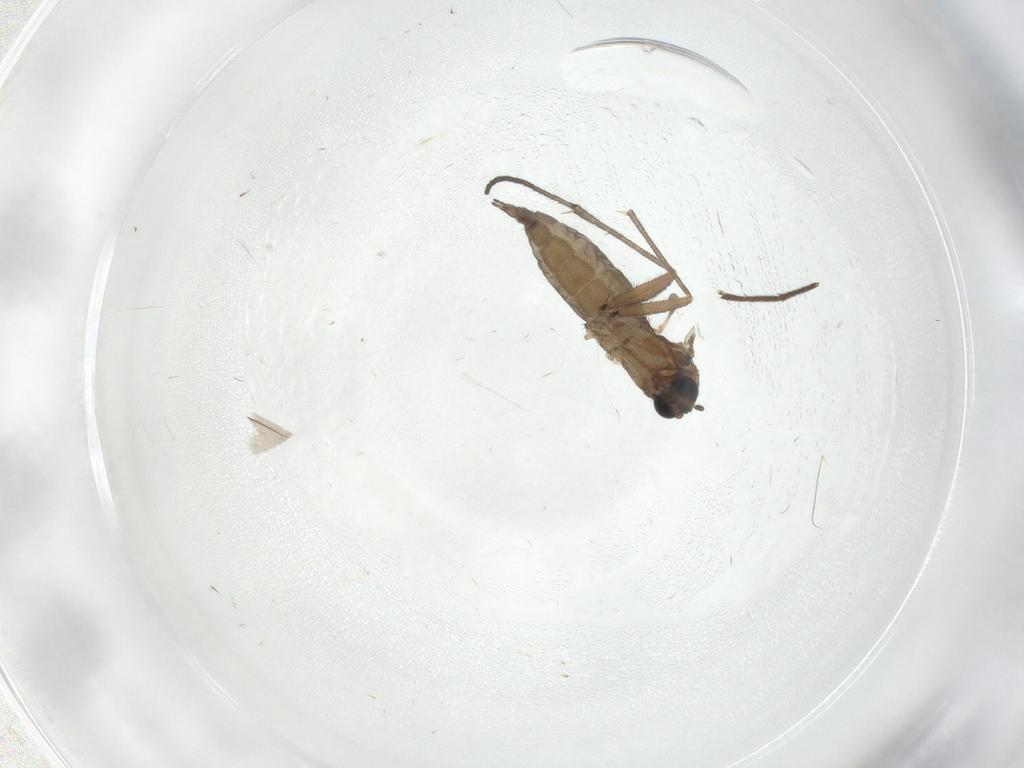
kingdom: Animalia
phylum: Arthropoda
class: Insecta
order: Diptera
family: Sciaridae
